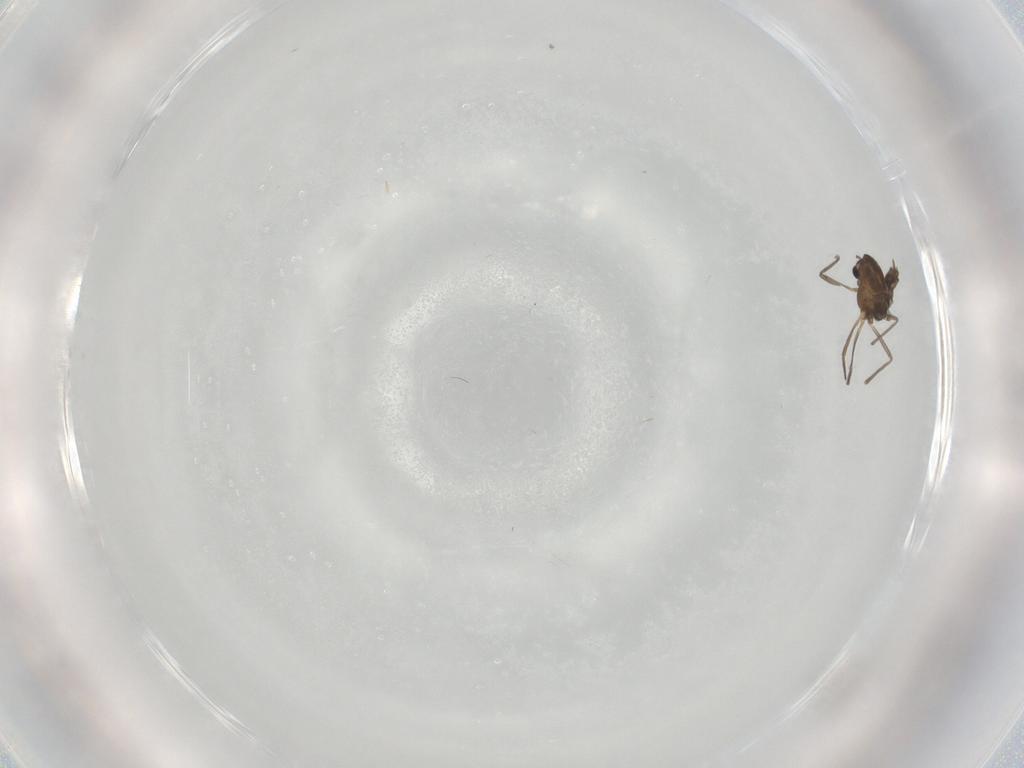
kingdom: Animalia
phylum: Arthropoda
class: Insecta
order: Diptera
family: Chironomidae
